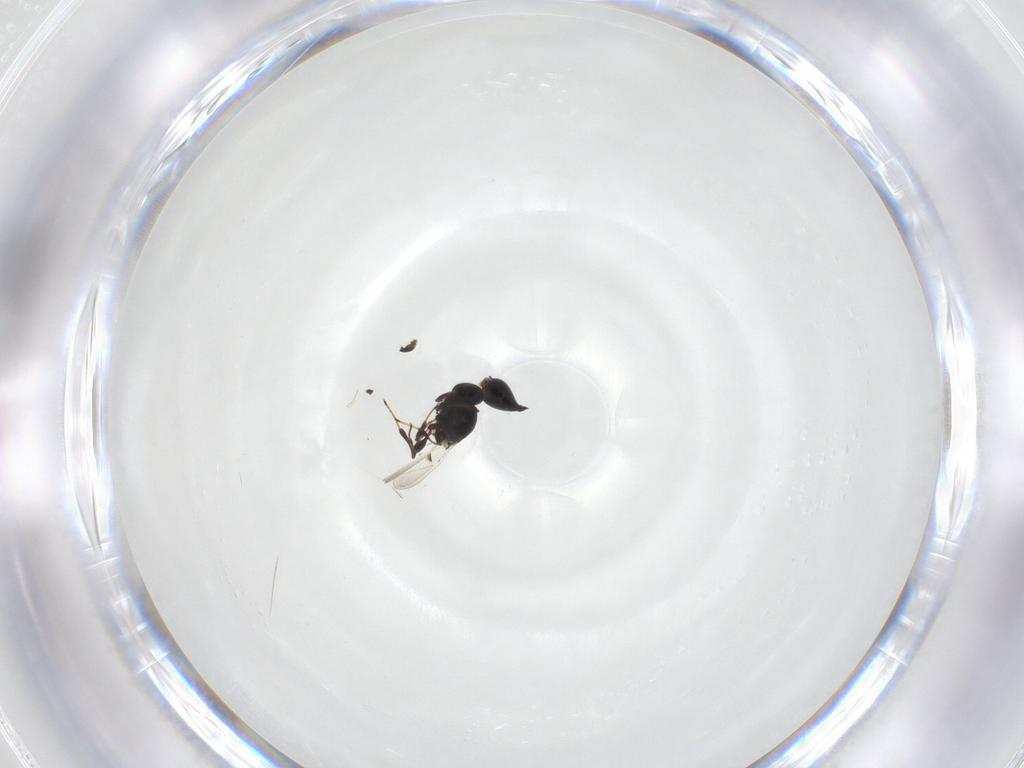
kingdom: Animalia
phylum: Arthropoda
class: Insecta
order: Hymenoptera
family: Platygastridae
